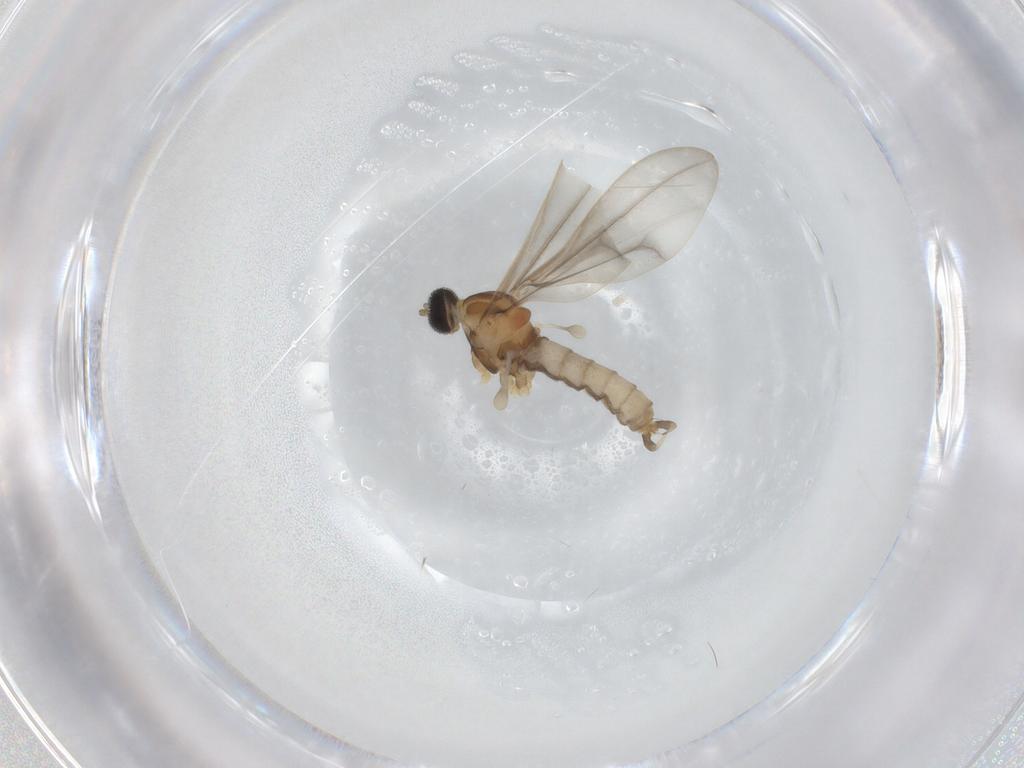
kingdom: Animalia
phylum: Arthropoda
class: Insecta
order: Diptera
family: Cecidomyiidae
